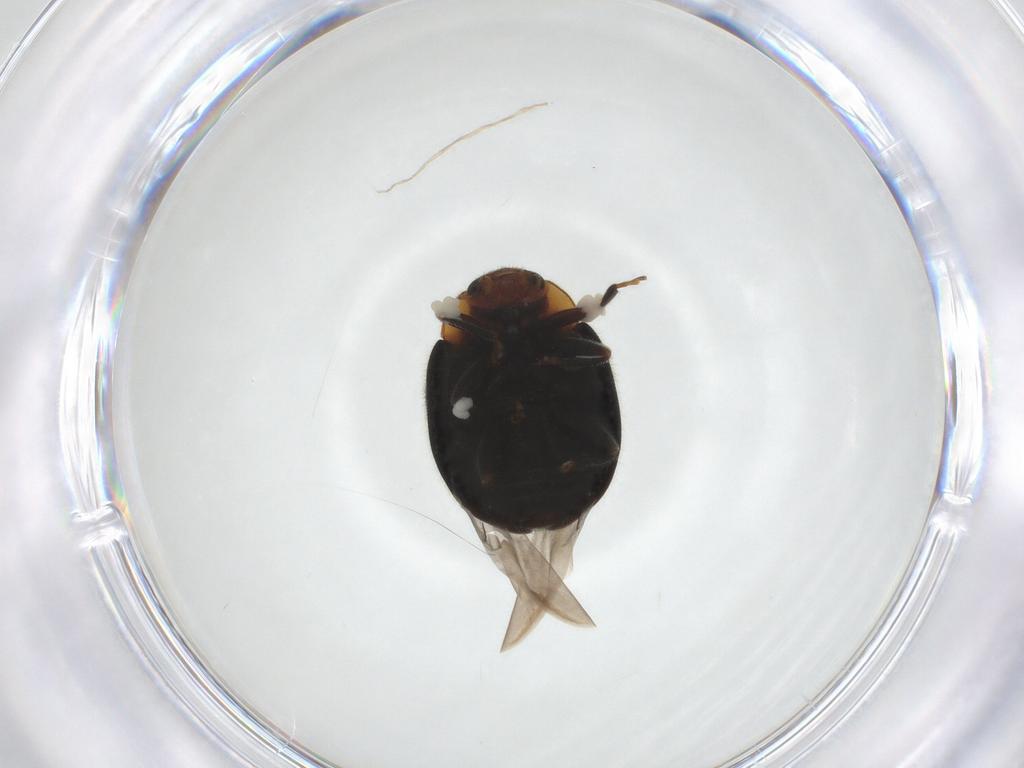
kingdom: Animalia
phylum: Arthropoda
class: Insecta
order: Coleoptera
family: Coccinellidae
